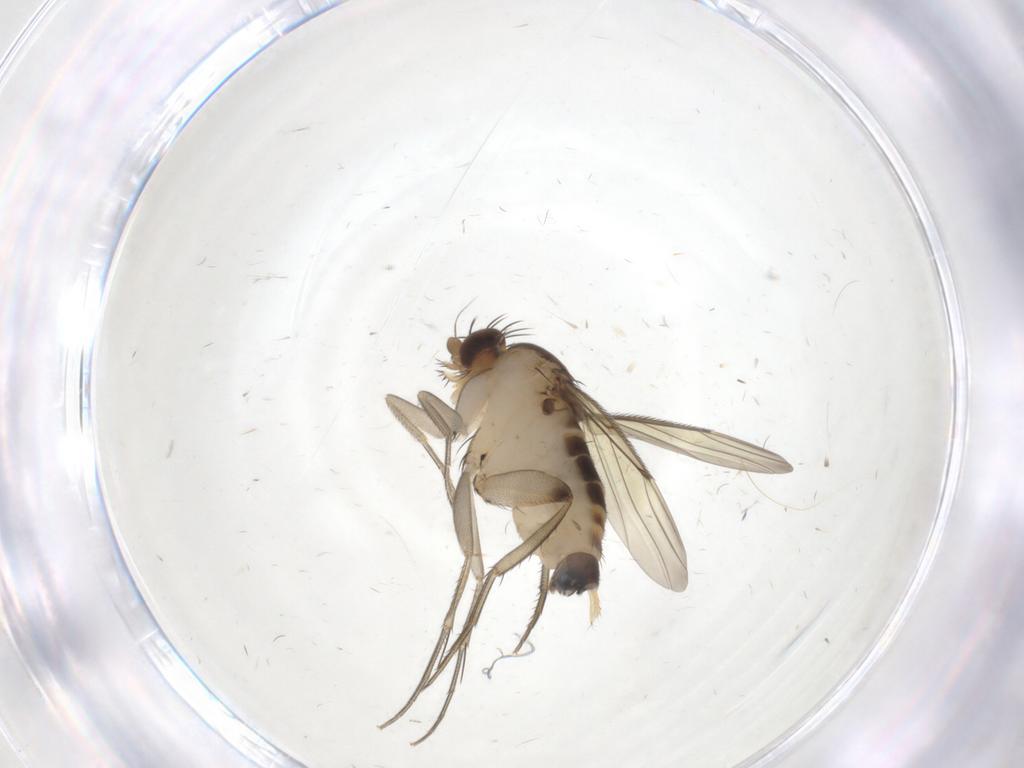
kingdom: Animalia
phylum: Arthropoda
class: Insecta
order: Diptera
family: Phoridae
